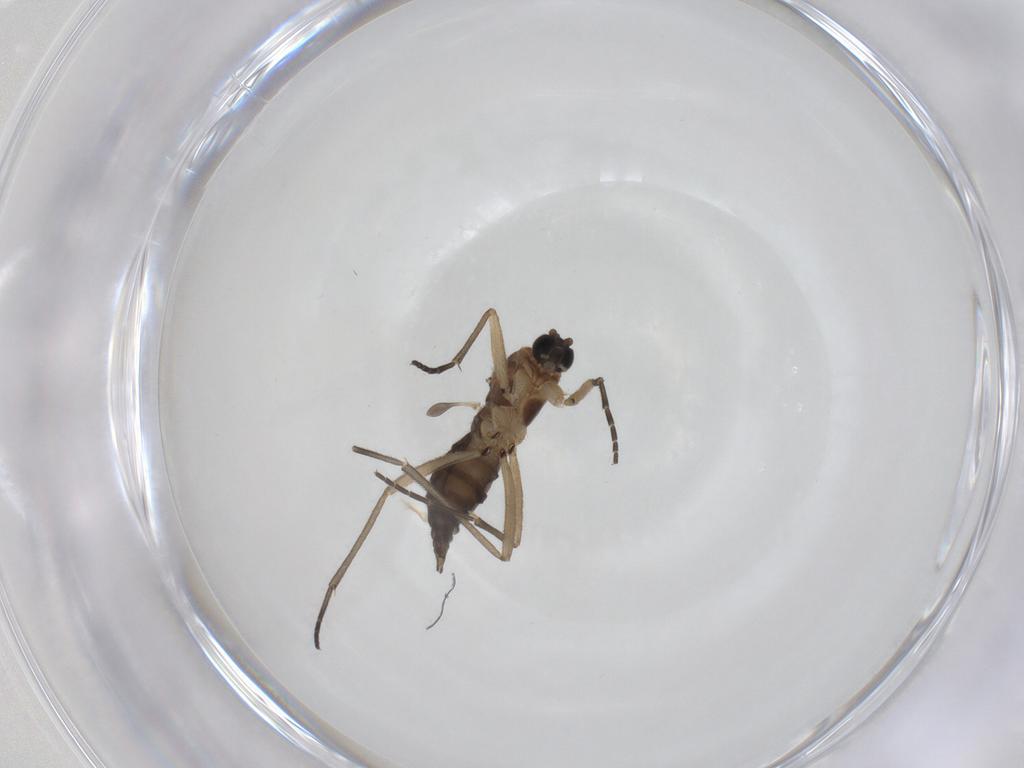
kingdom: Animalia
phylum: Arthropoda
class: Insecta
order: Diptera
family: Sciaridae
